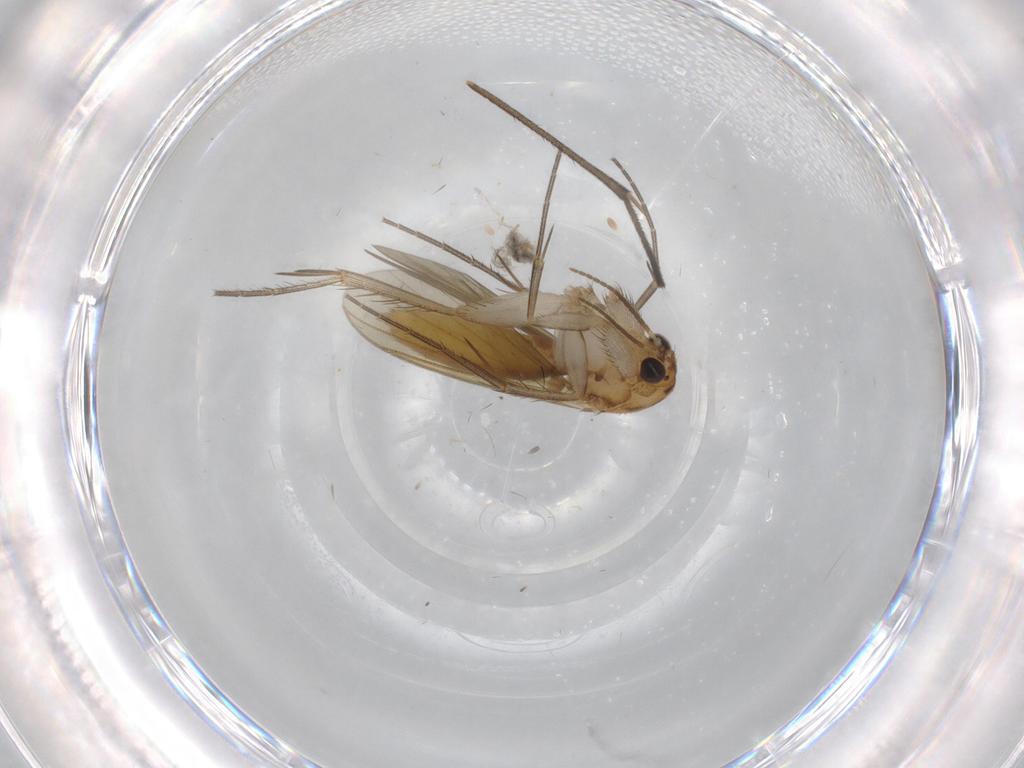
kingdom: Animalia
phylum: Arthropoda
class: Insecta
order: Diptera
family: Mycetophilidae
